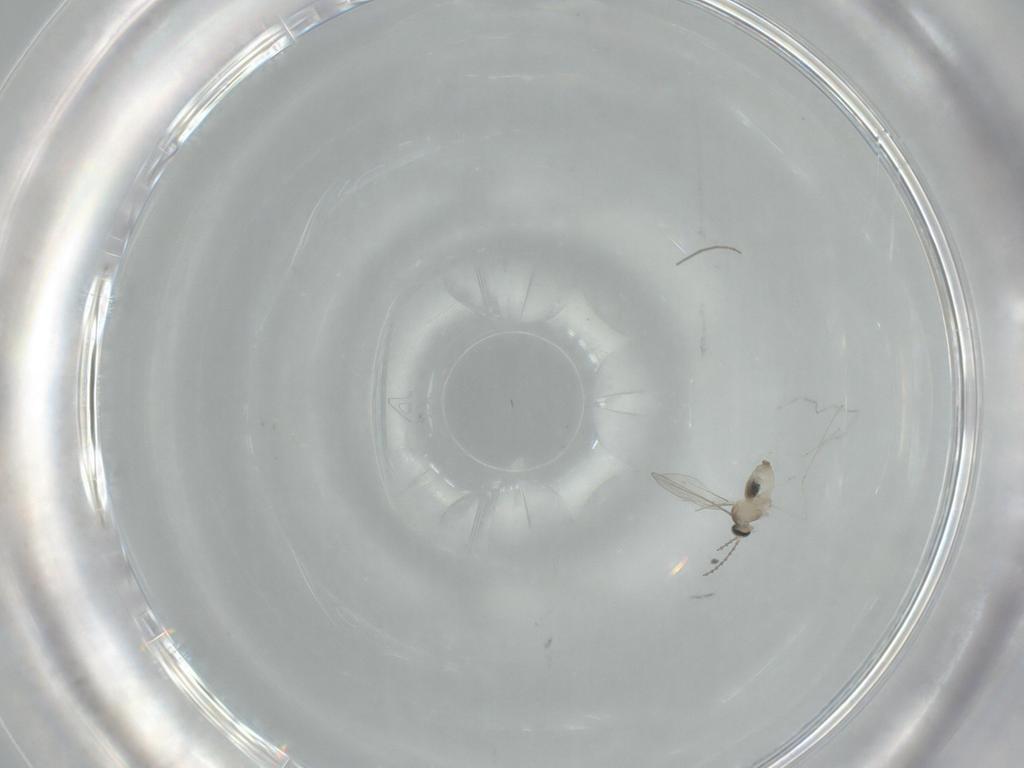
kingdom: Animalia
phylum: Arthropoda
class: Insecta
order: Diptera
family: Cecidomyiidae
